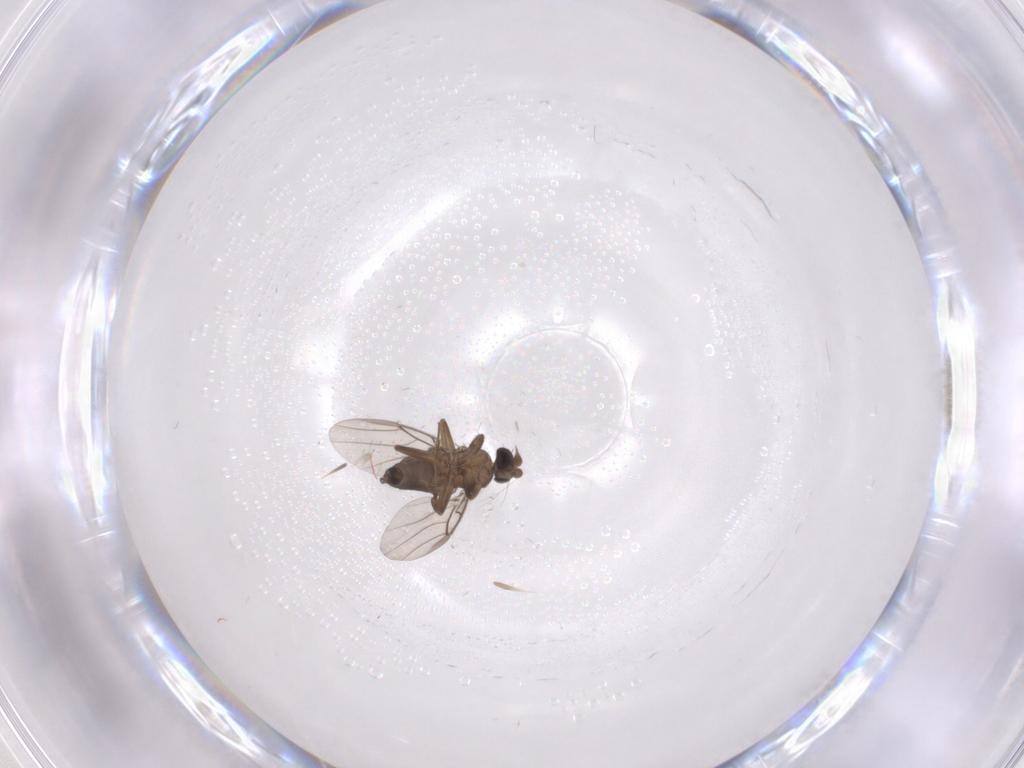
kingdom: Animalia
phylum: Arthropoda
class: Insecta
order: Diptera
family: Phoridae
